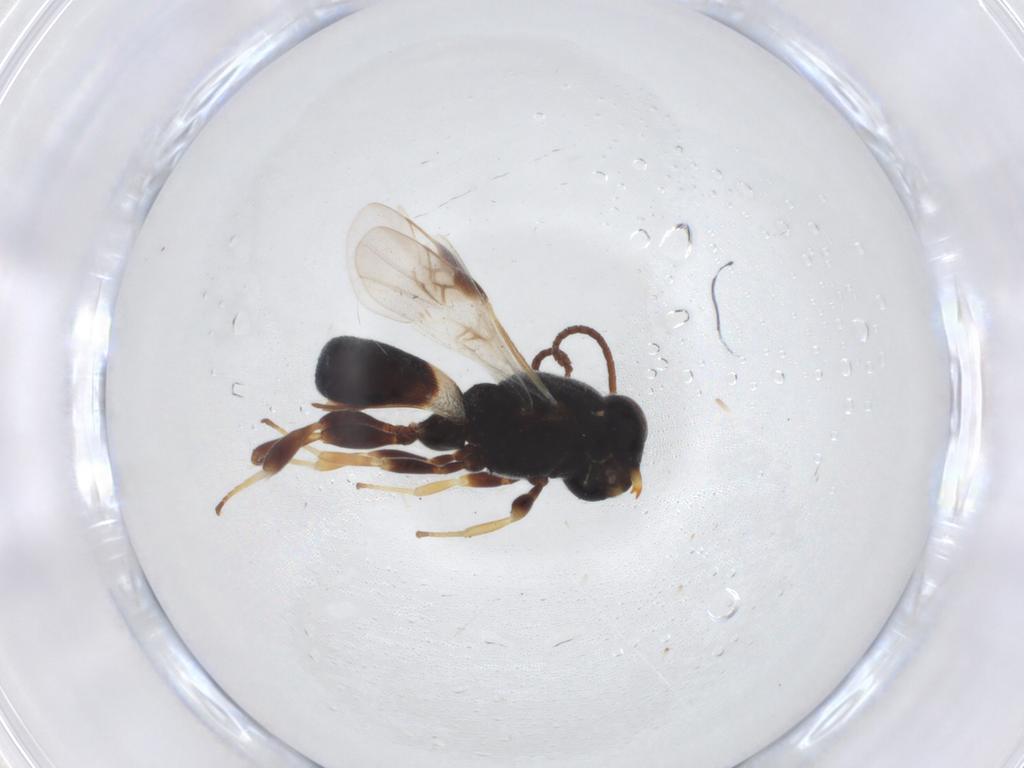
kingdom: Animalia
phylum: Arthropoda
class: Insecta
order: Hymenoptera
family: Braconidae
